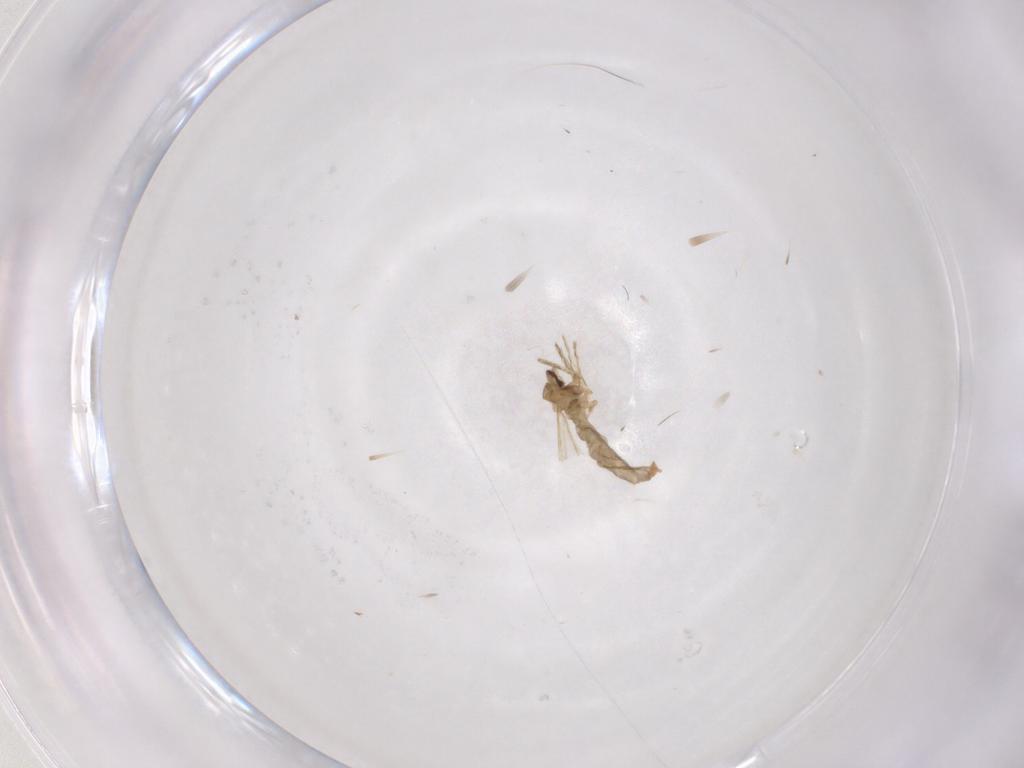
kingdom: Animalia
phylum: Arthropoda
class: Insecta
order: Diptera
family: Cecidomyiidae
